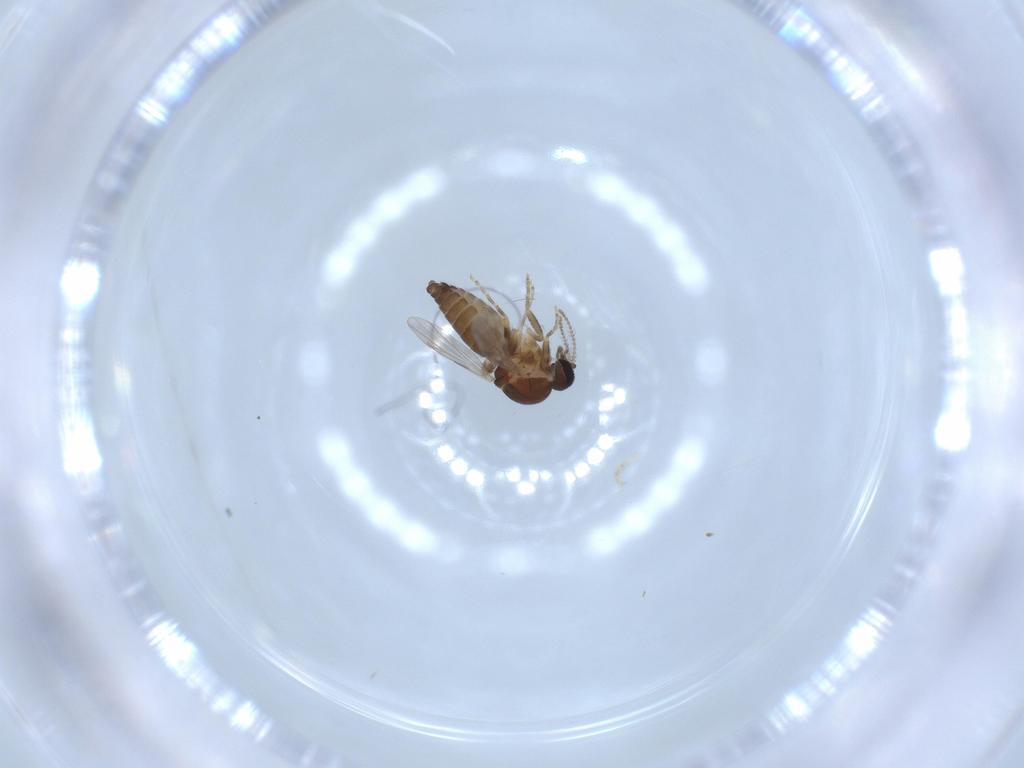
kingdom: Animalia
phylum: Arthropoda
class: Insecta
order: Diptera
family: Ceratopogonidae
